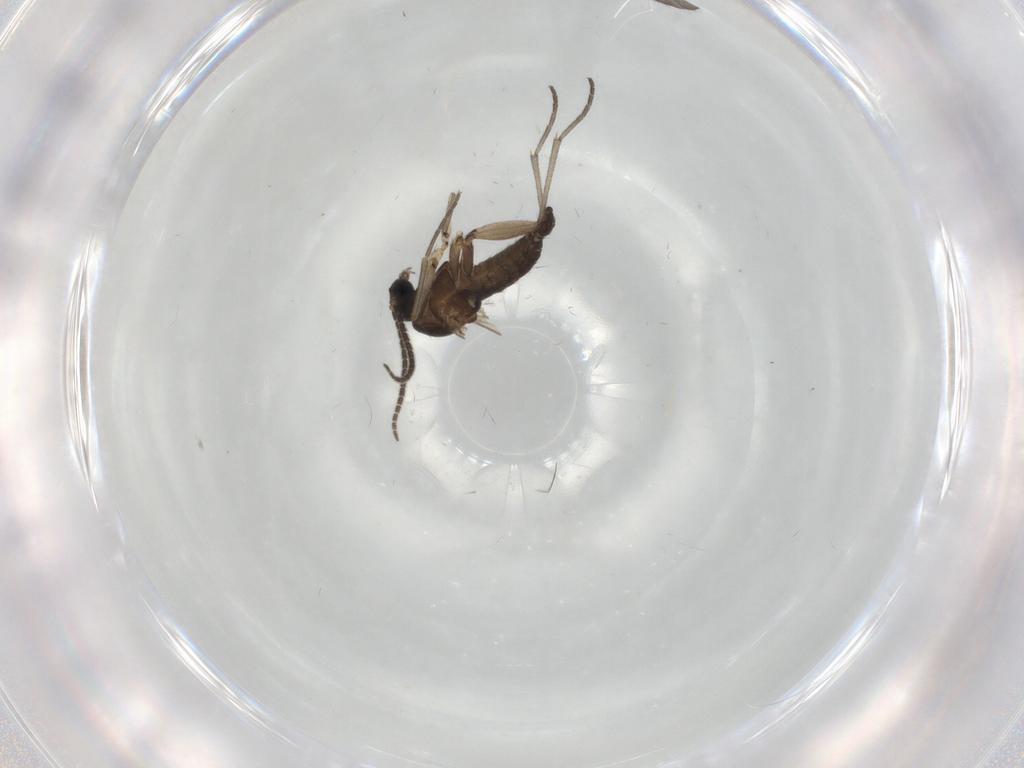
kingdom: Animalia
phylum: Arthropoda
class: Insecta
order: Diptera
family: Sciaridae
